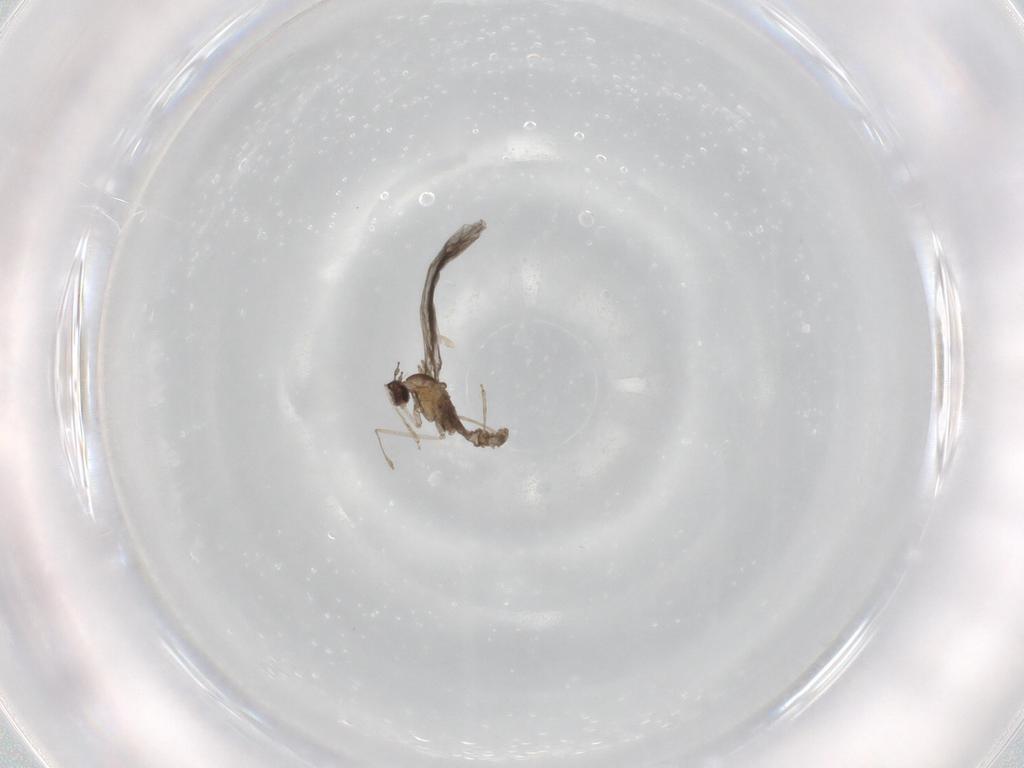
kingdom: Animalia
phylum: Arthropoda
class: Insecta
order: Diptera
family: Cecidomyiidae
